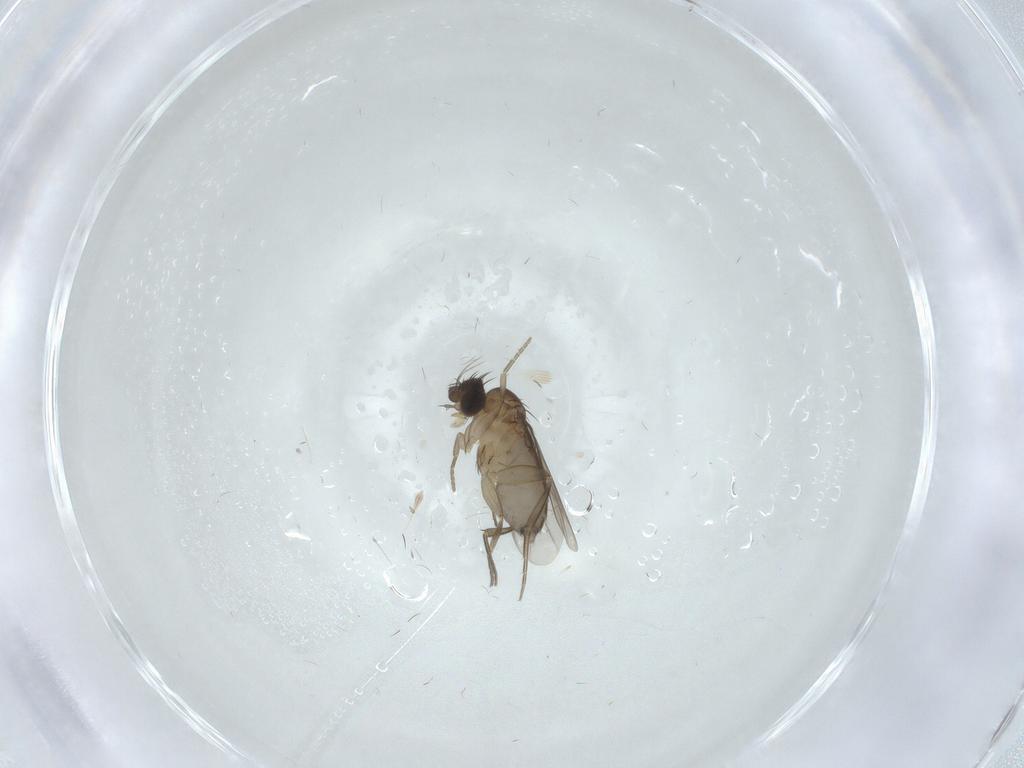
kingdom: Animalia
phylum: Arthropoda
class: Insecta
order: Diptera
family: Phoridae
